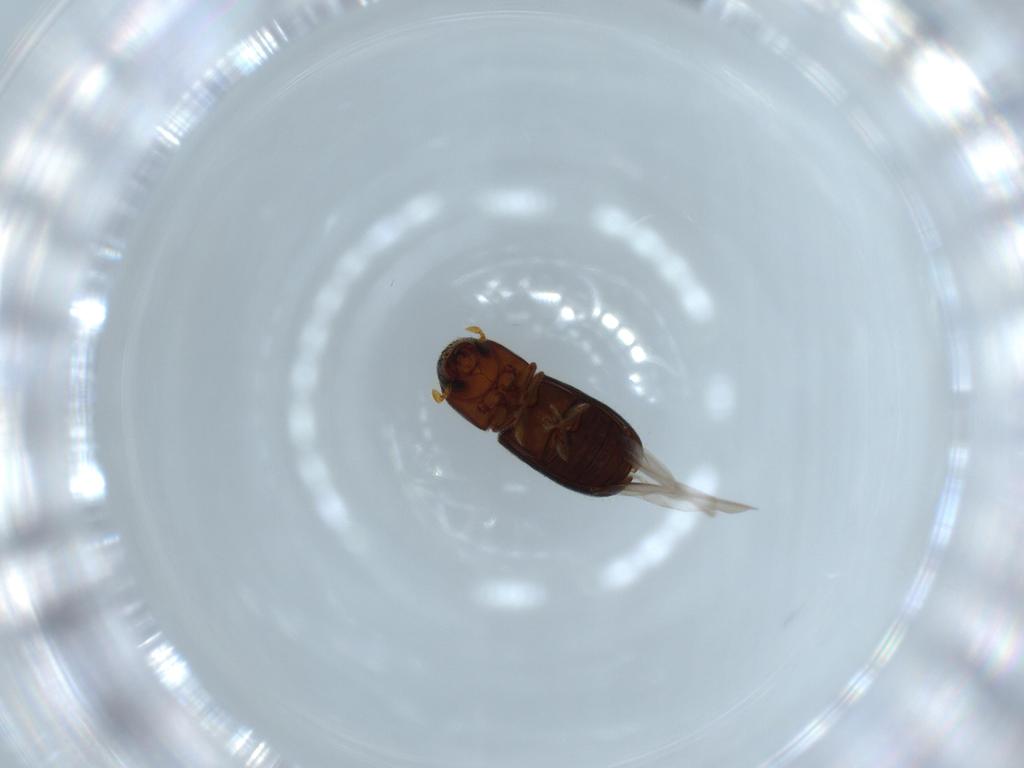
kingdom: Animalia
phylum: Arthropoda
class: Insecta
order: Coleoptera
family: Curculionidae
